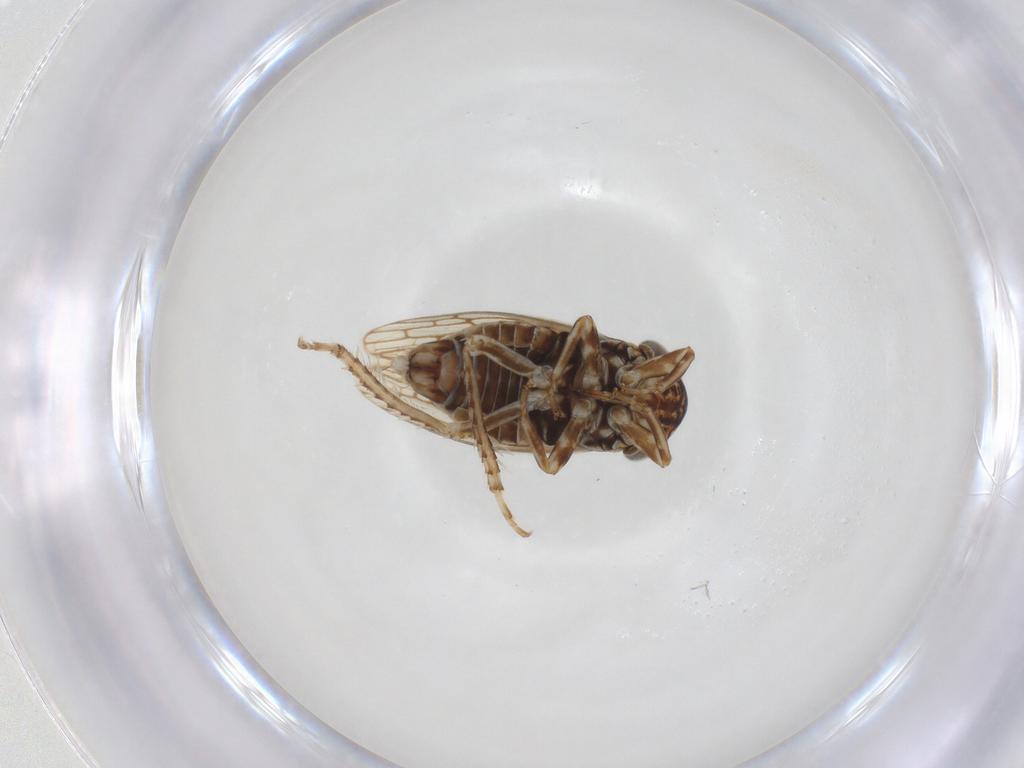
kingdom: Animalia
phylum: Arthropoda
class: Insecta
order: Hemiptera
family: Cicadellidae
